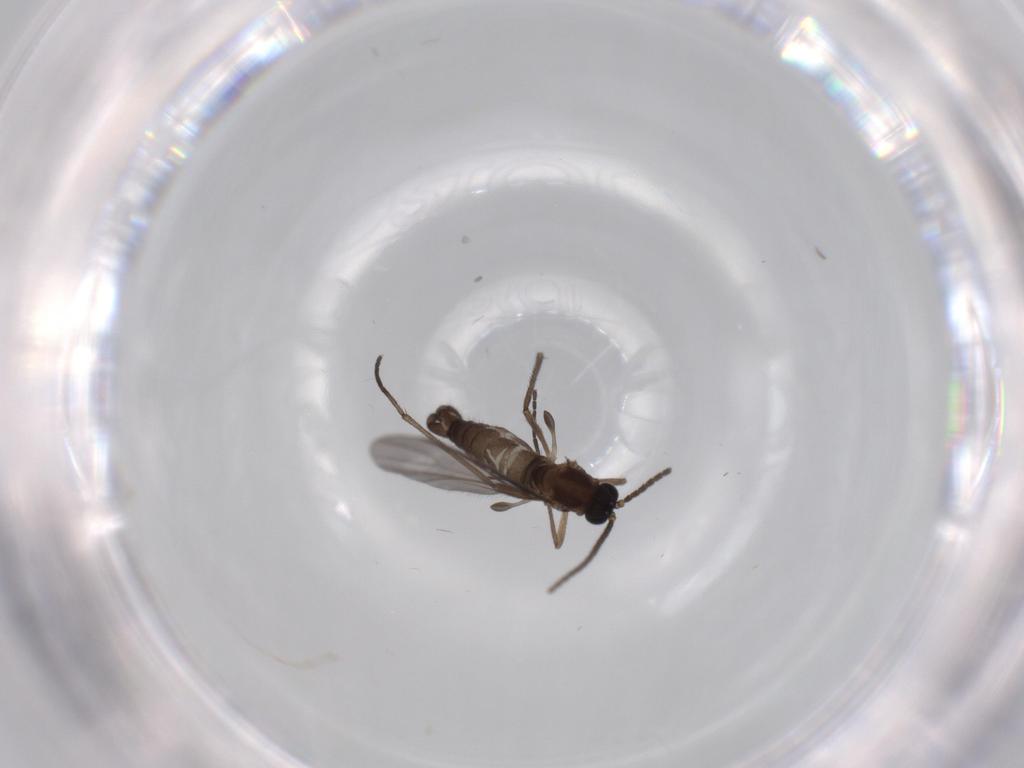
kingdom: Animalia
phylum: Arthropoda
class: Insecta
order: Diptera
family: Sciaridae
